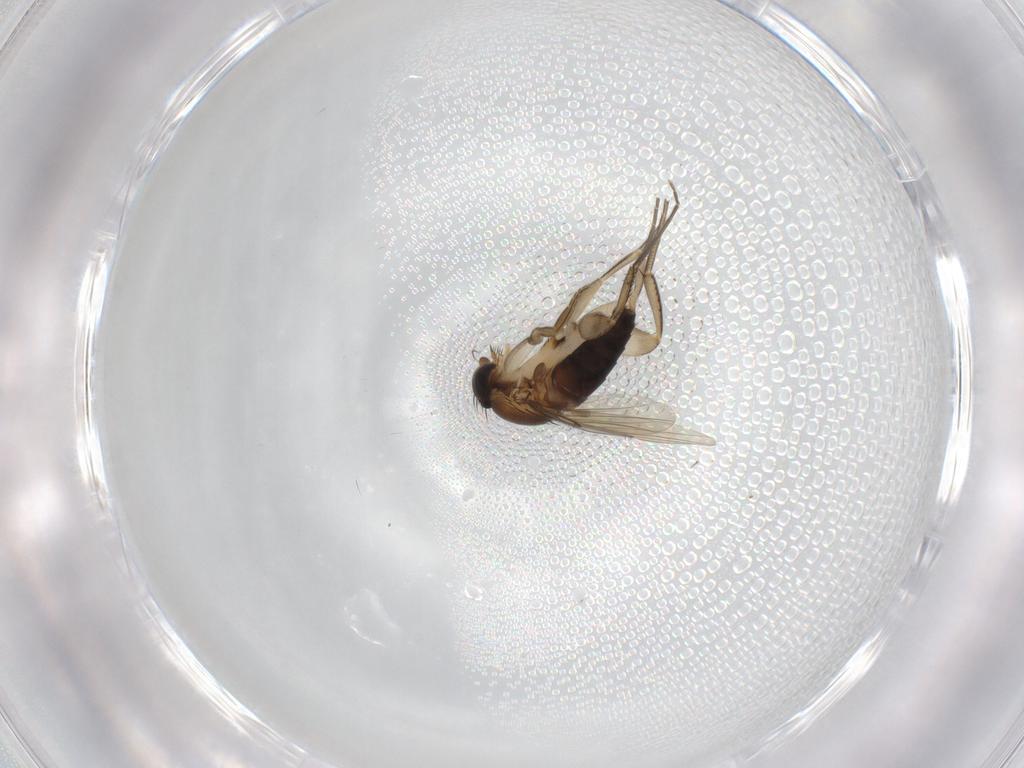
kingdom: Animalia
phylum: Arthropoda
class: Insecta
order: Diptera
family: Phoridae
